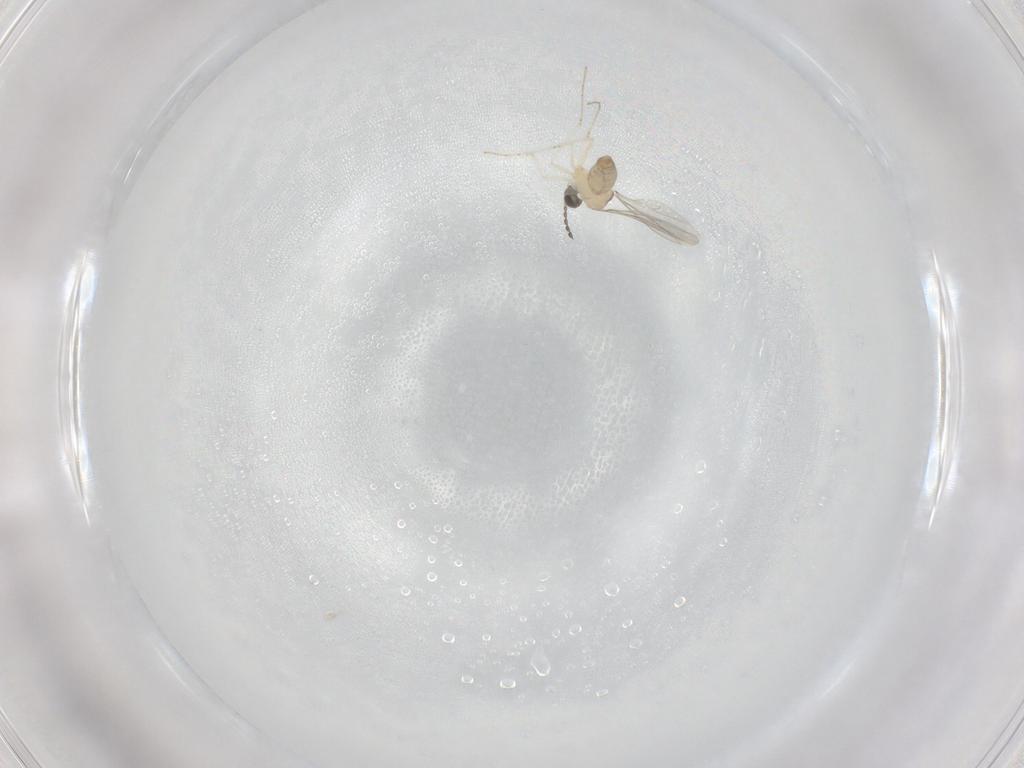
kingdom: Animalia
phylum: Arthropoda
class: Insecta
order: Diptera
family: Cecidomyiidae
